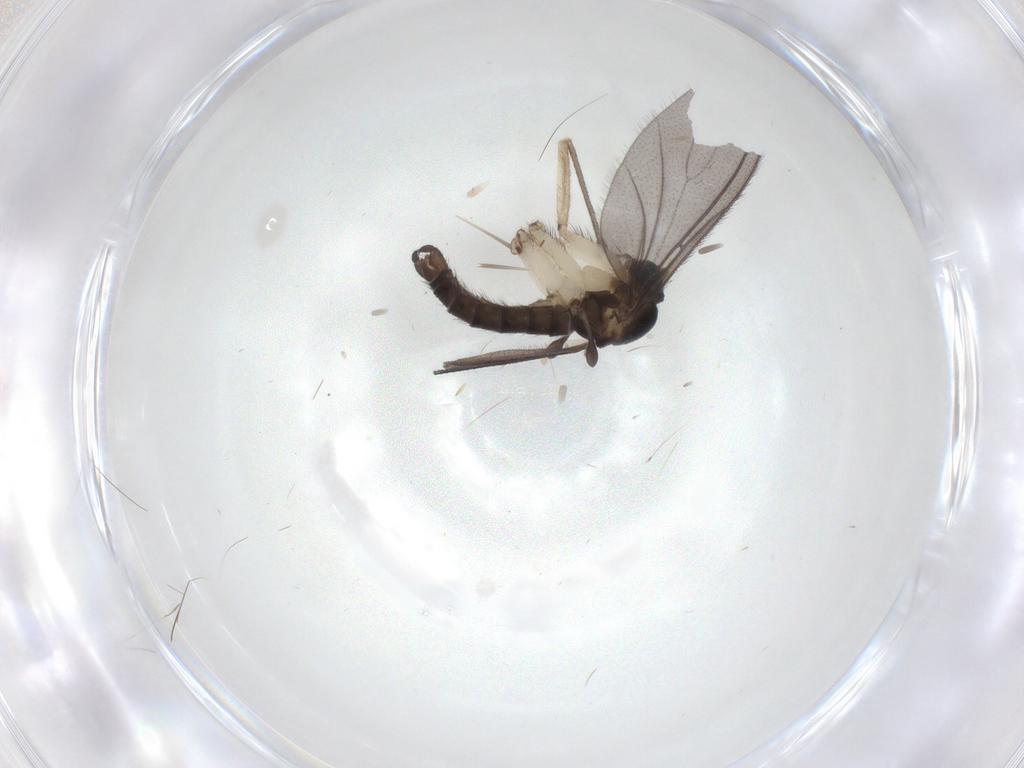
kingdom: Animalia
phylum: Arthropoda
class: Insecta
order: Diptera
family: Sciaridae
